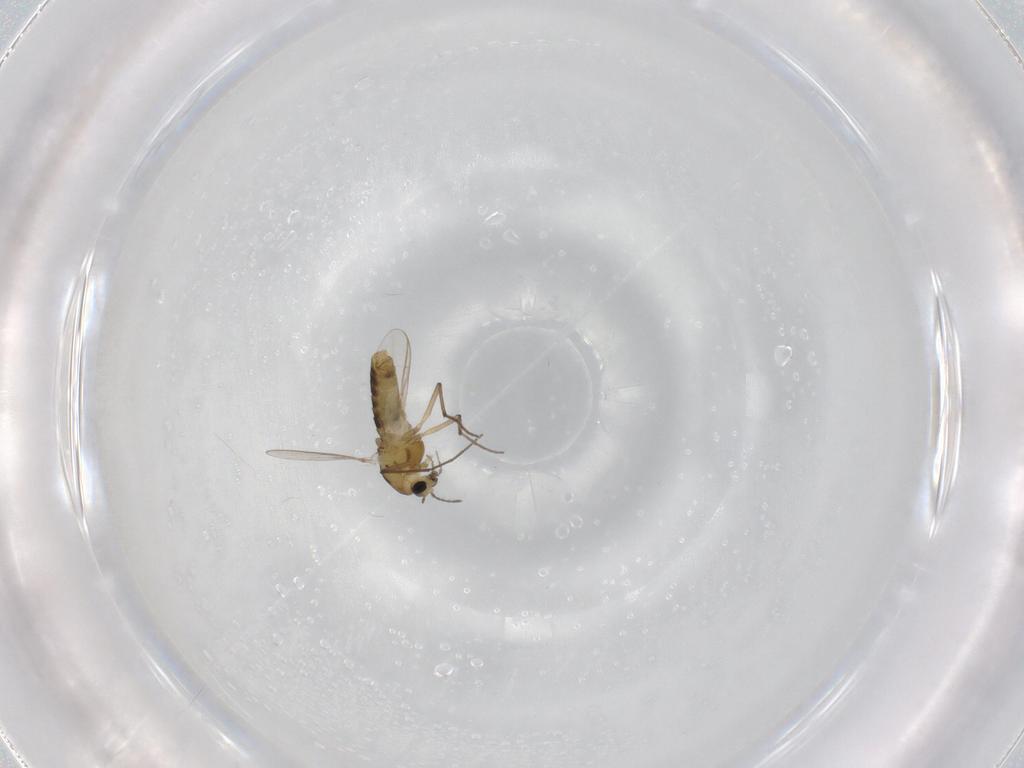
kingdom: Animalia
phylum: Arthropoda
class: Insecta
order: Diptera
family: Chironomidae
